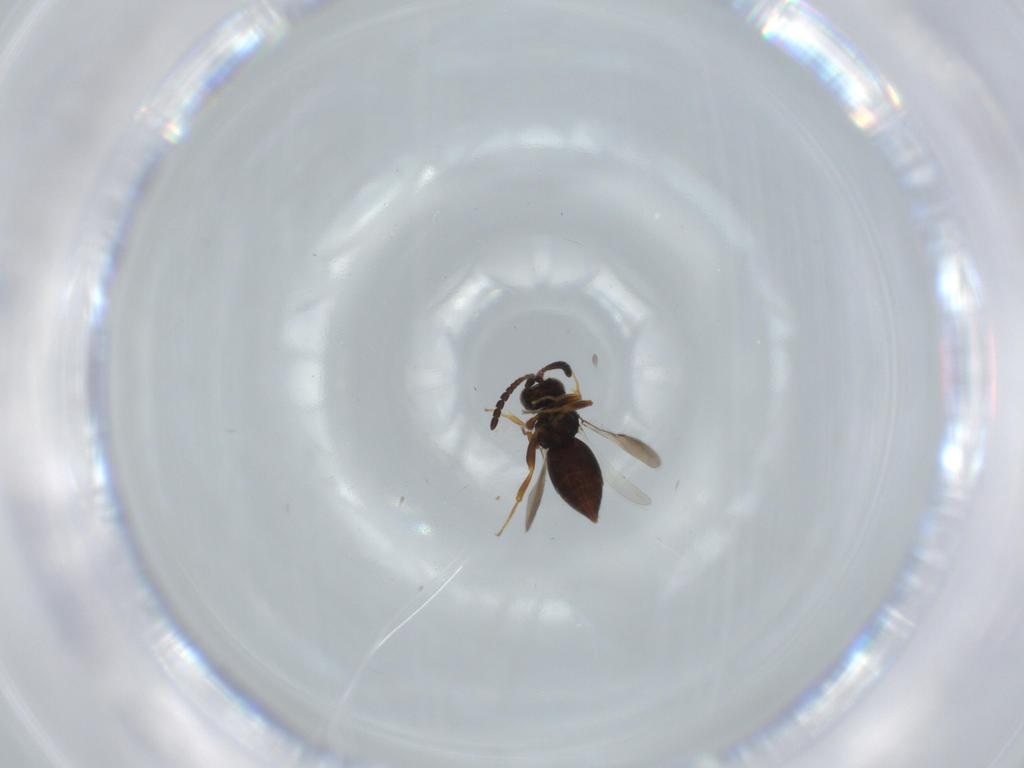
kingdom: Animalia
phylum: Arthropoda
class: Insecta
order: Hymenoptera
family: Ceraphronidae
